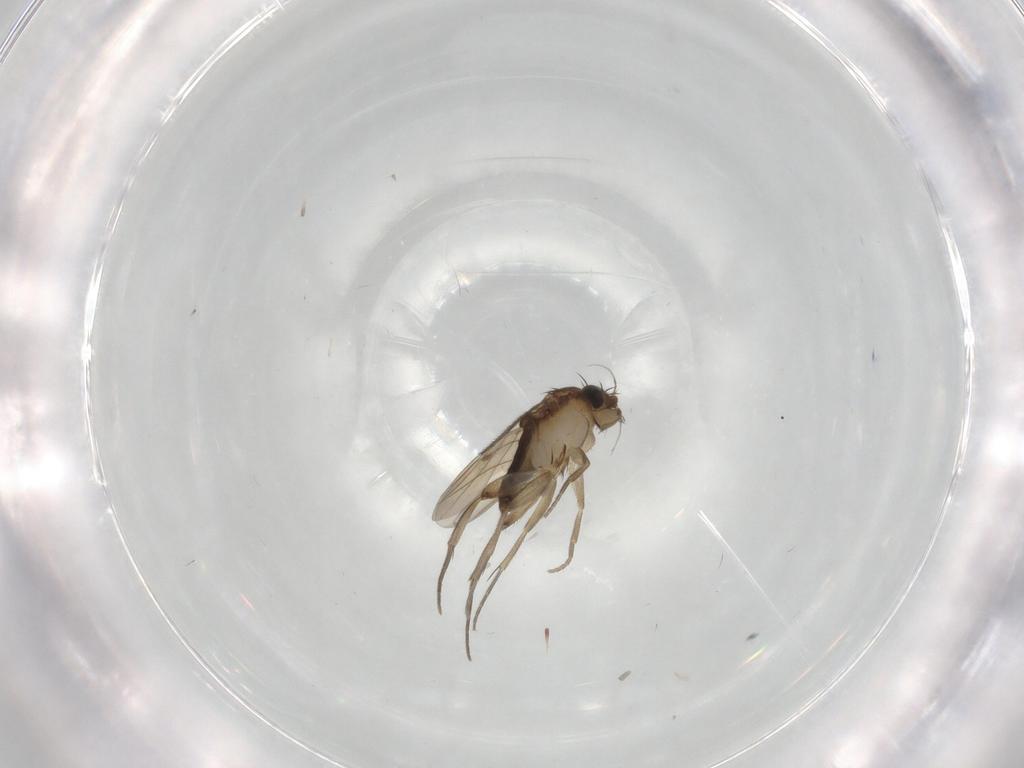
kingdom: Animalia
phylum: Arthropoda
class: Insecta
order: Diptera
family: Phoridae
